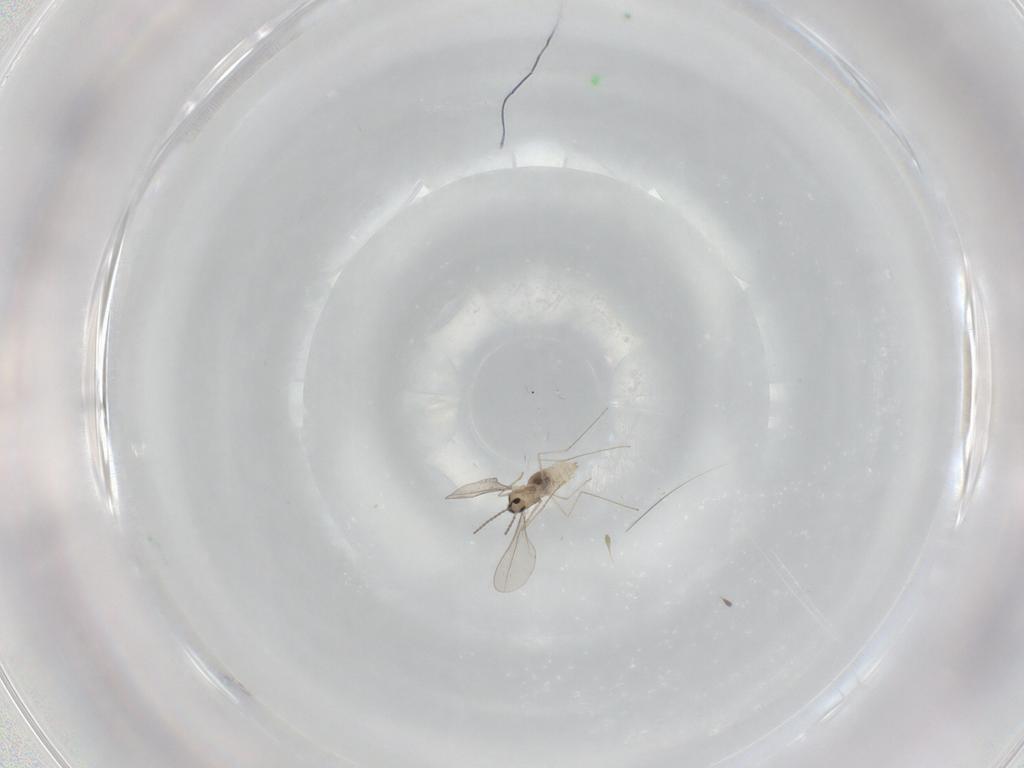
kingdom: Animalia
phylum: Arthropoda
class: Insecta
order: Diptera
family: Cecidomyiidae
